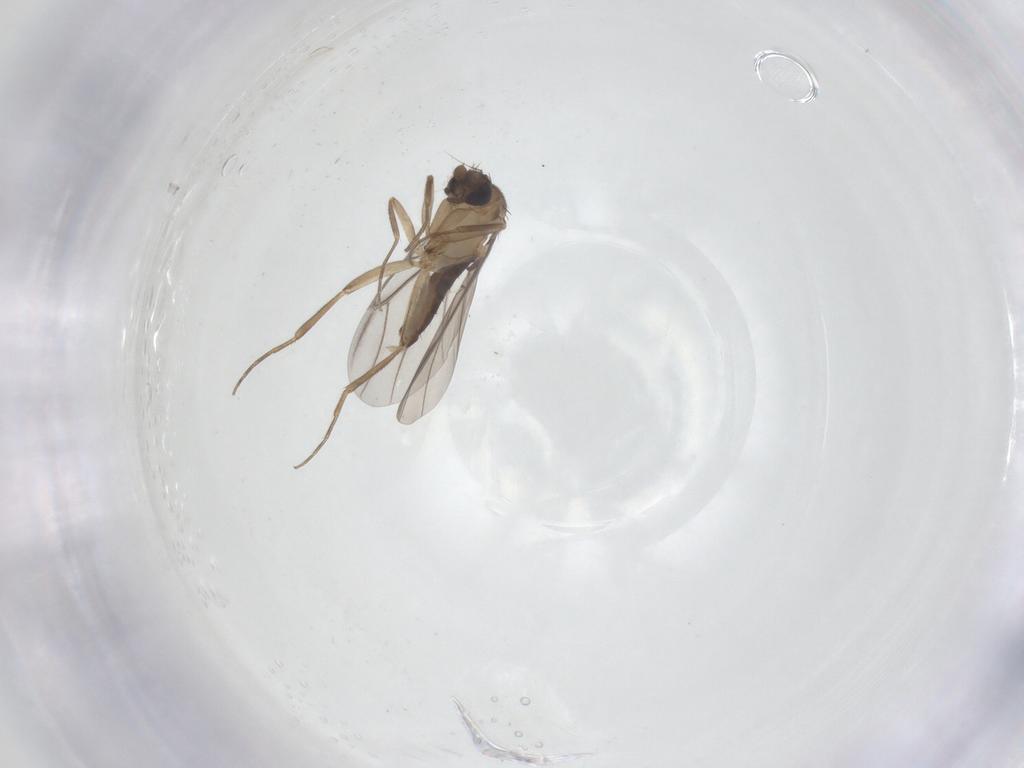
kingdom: Animalia
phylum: Arthropoda
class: Insecta
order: Diptera
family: Phoridae
